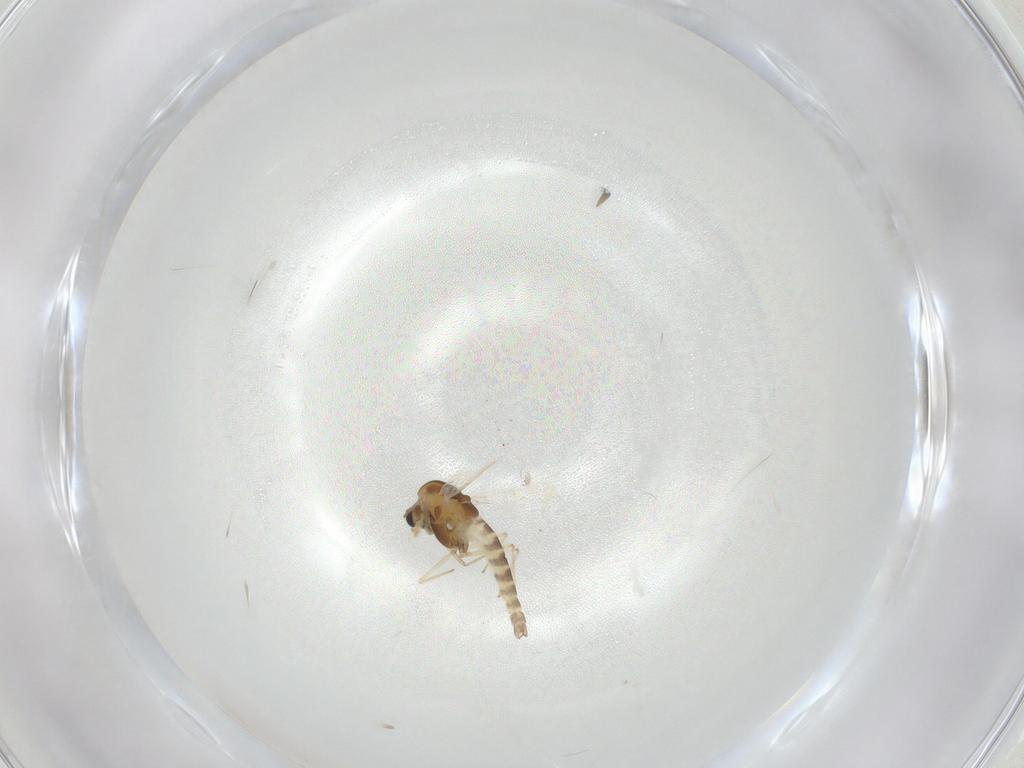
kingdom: Animalia
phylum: Arthropoda
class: Insecta
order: Diptera
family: Chironomidae
